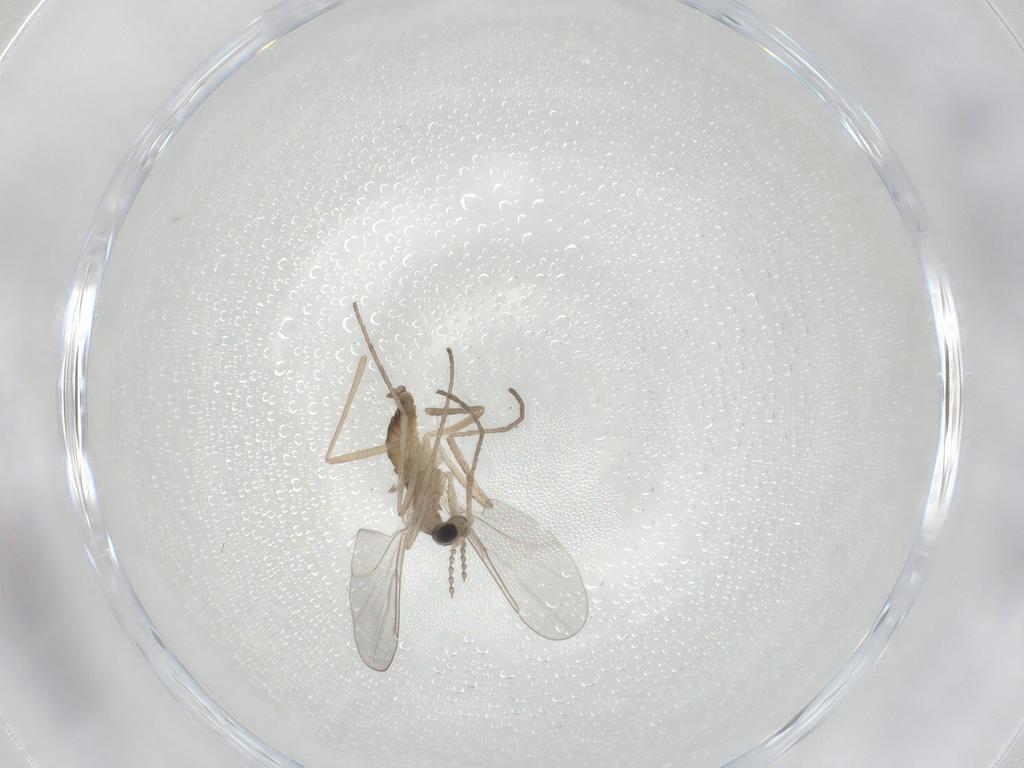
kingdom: Animalia
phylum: Arthropoda
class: Insecta
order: Diptera
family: Cecidomyiidae
